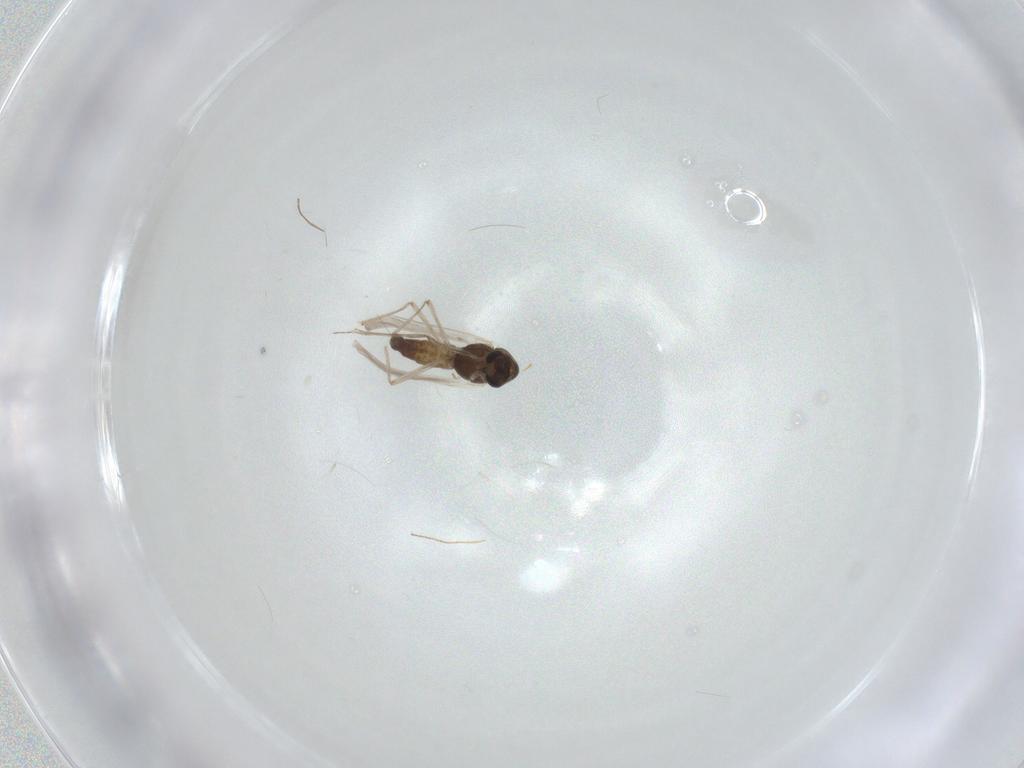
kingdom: Animalia
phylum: Arthropoda
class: Insecta
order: Diptera
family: Chironomidae
